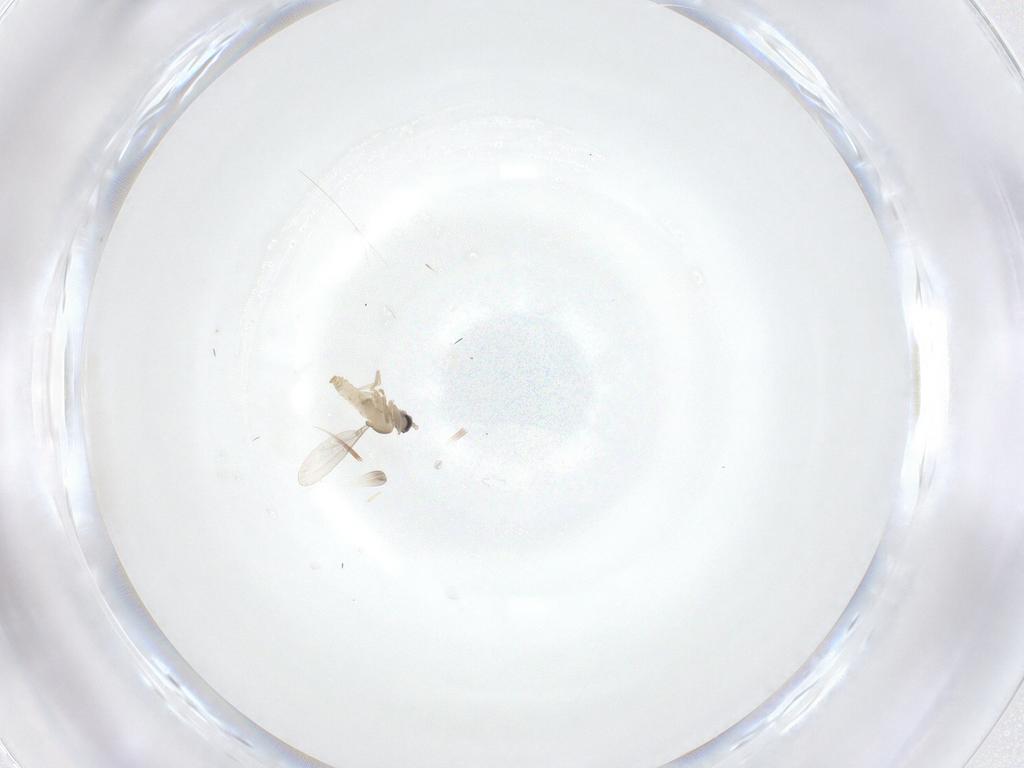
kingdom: Animalia
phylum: Arthropoda
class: Insecta
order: Diptera
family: Cecidomyiidae
